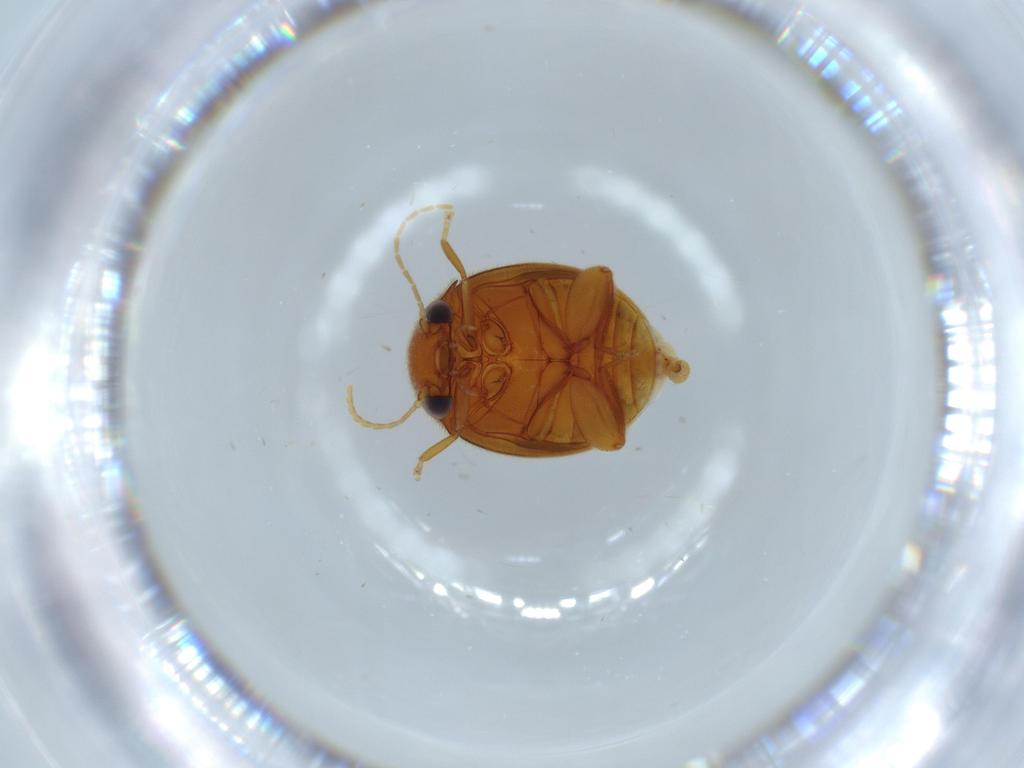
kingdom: Animalia
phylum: Arthropoda
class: Insecta
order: Coleoptera
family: Scirtidae
